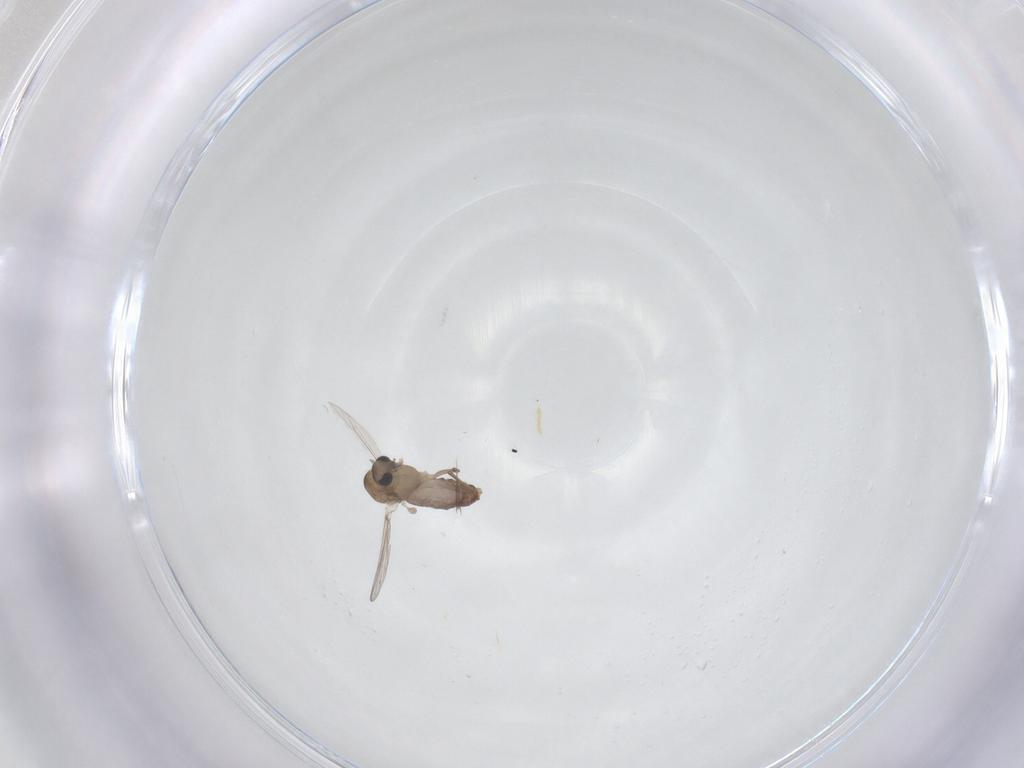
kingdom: Animalia
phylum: Arthropoda
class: Insecta
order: Diptera
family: Chironomidae
